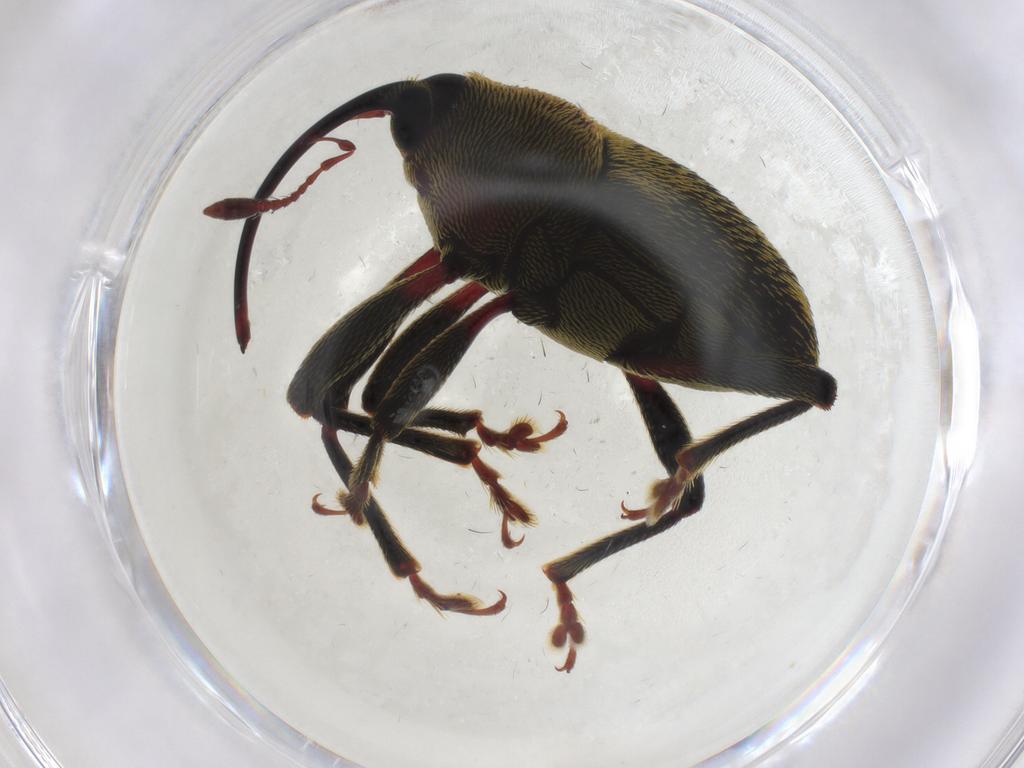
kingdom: Animalia
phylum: Arthropoda
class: Insecta
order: Coleoptera
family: Curculionidae
